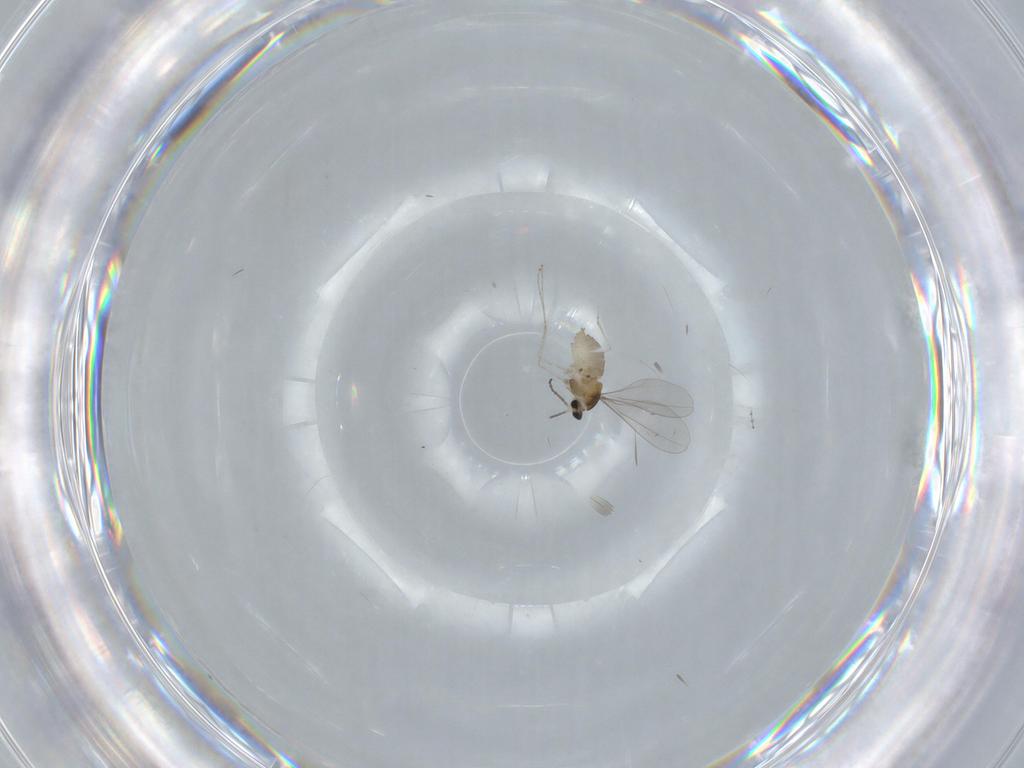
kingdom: Animalia
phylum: Arthropoda
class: Insecta
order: Diptera
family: Cecidomyiidae
